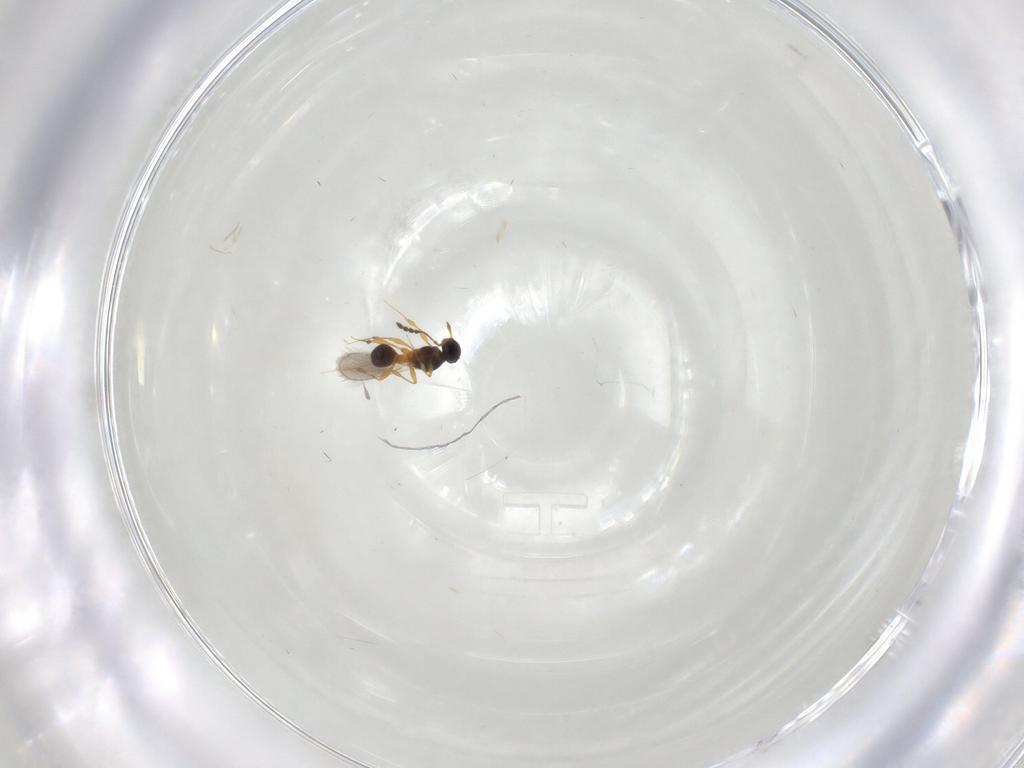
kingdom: Animalia
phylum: Arthropoda
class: Insecta
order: Hymenoptera
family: Platygastridae
